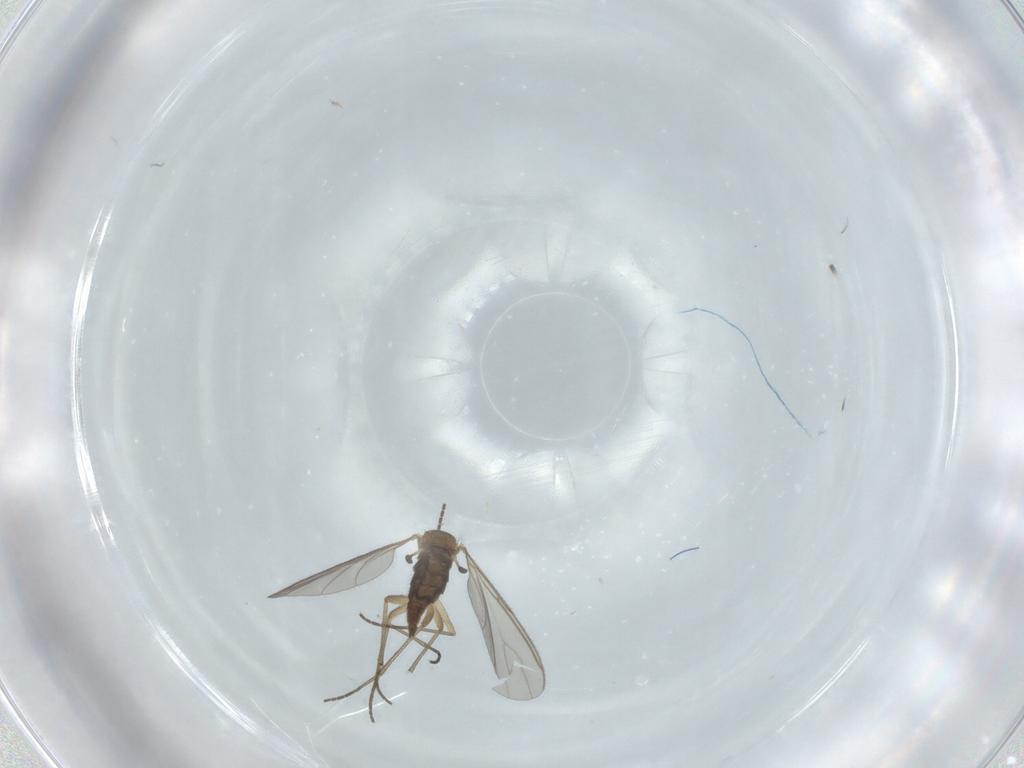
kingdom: Animalia
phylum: Arthropoda
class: Insecta
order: Diptera
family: Sciaridae
